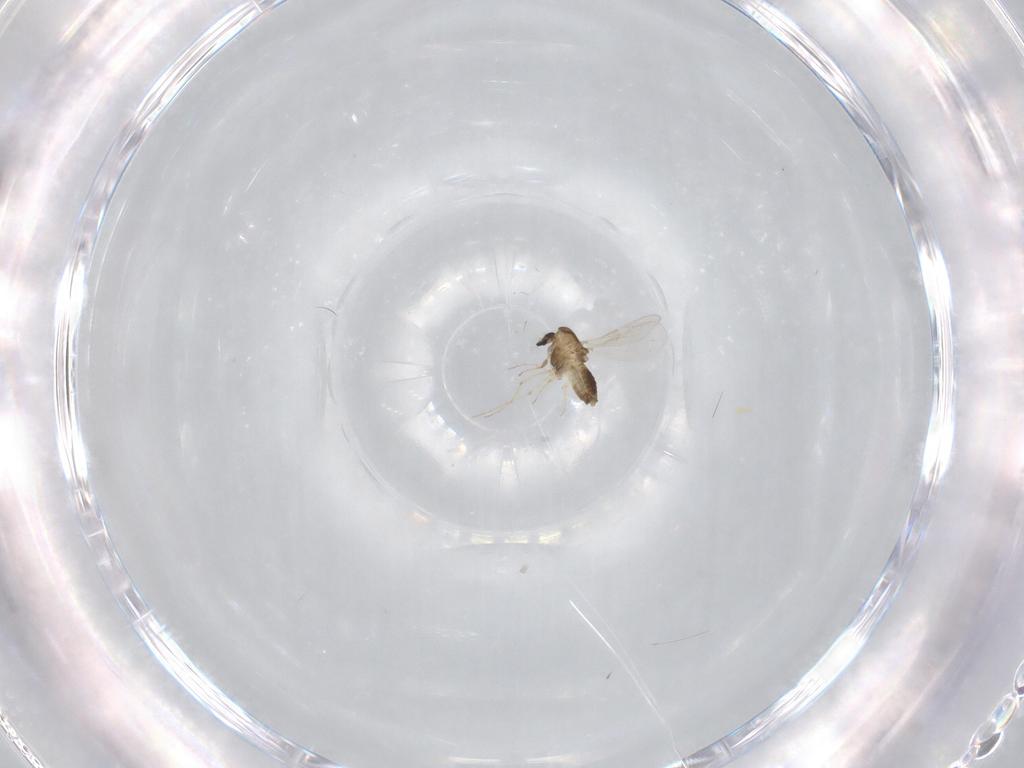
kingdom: Animalia
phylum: Arthropoda
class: Insecta
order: Diptera
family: Chironomidae
